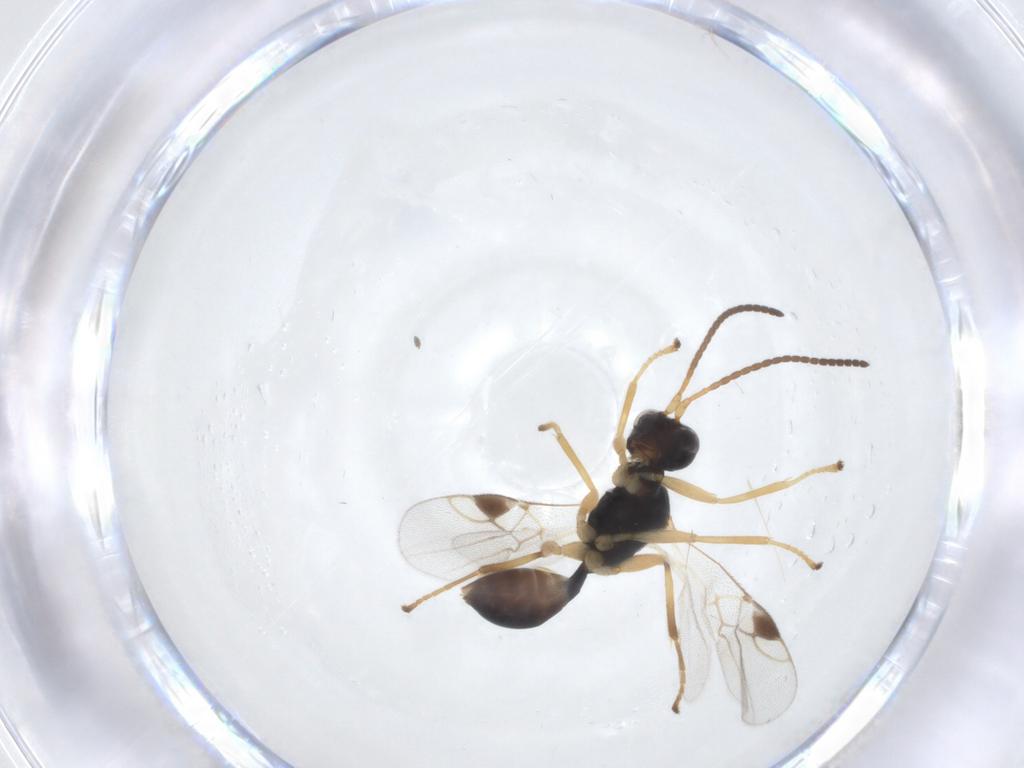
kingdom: Animalia
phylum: Arthropoda
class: Insecta
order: Hymenoptera
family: Braconidae
